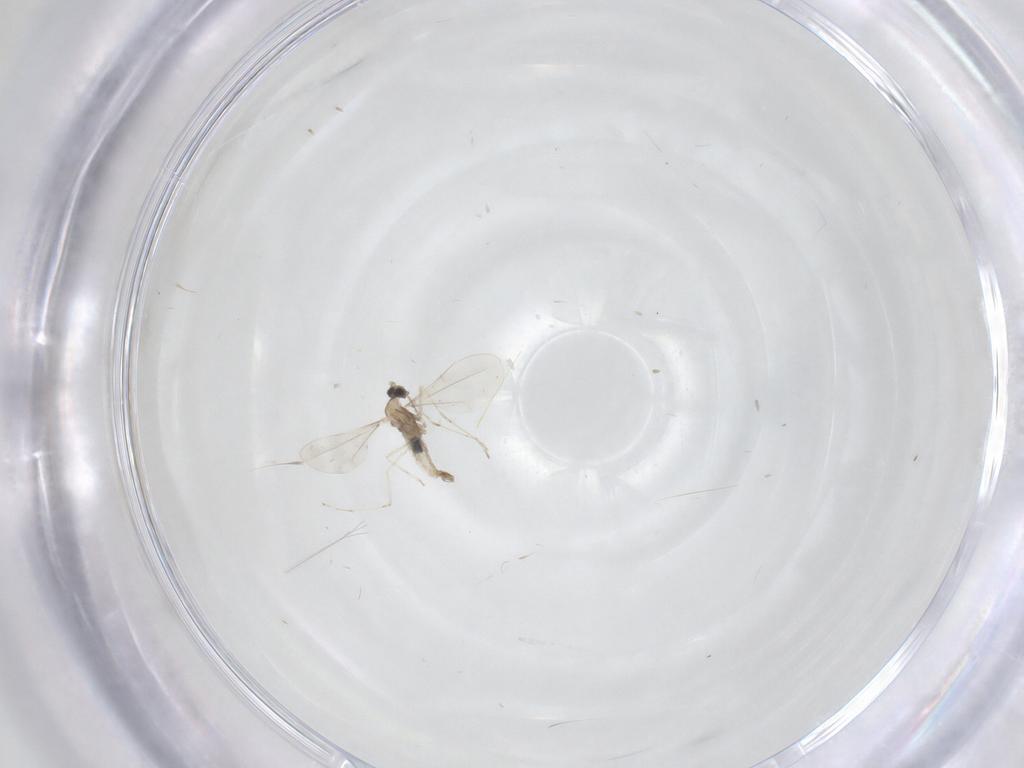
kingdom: Animalia
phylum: Arthropoda
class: Insecta
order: Diptera
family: Cecidomyiidae
